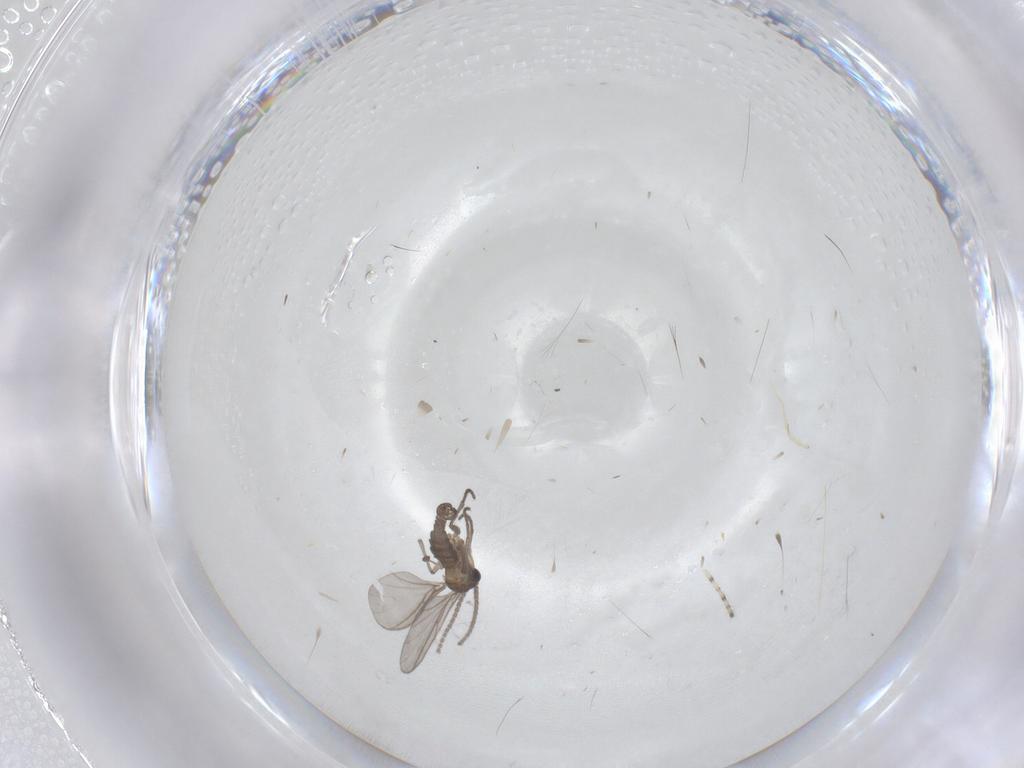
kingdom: Animalia
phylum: Arthropoda
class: Insecta
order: Diptera
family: Sciaridae
